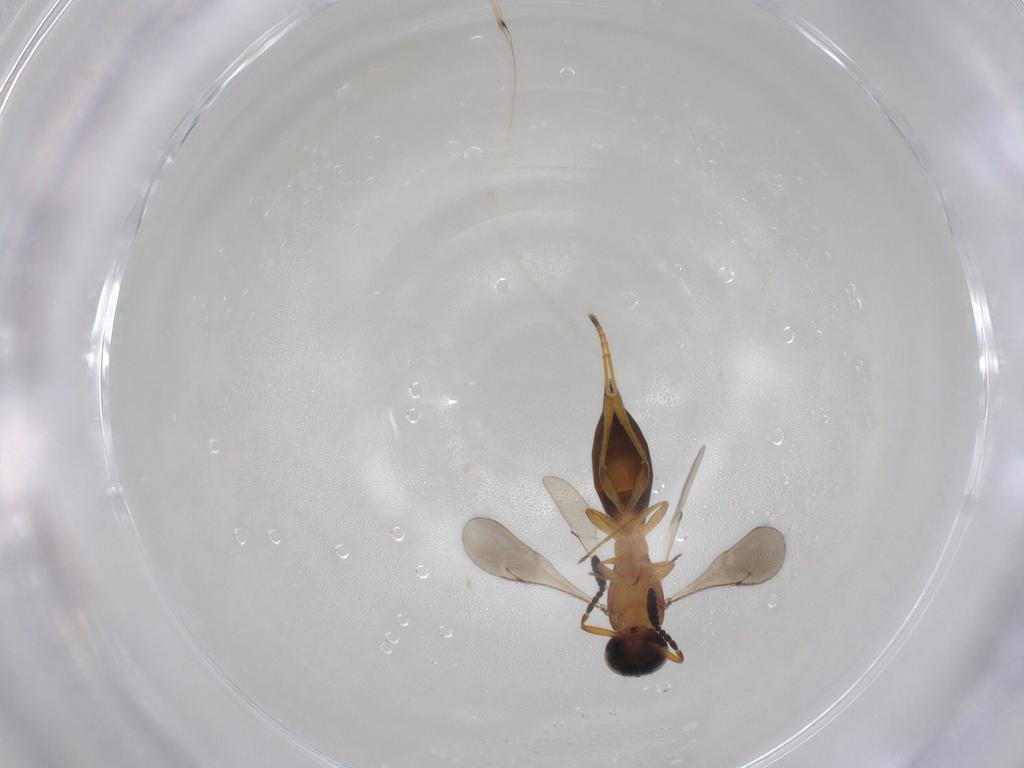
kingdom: Animalia
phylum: Arthropoda
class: Insecta
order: Hymenoptera
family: Scelionidae
